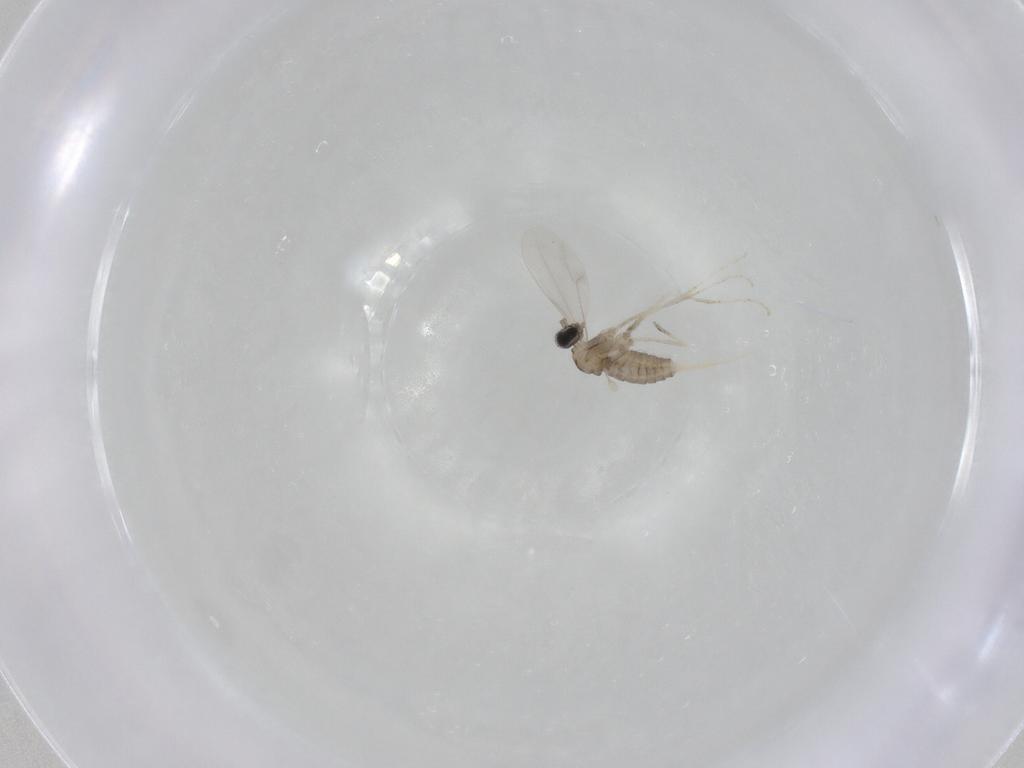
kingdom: Animalia
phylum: Arthropoda
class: Insecta
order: Diptera
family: Cecidomyiidae
